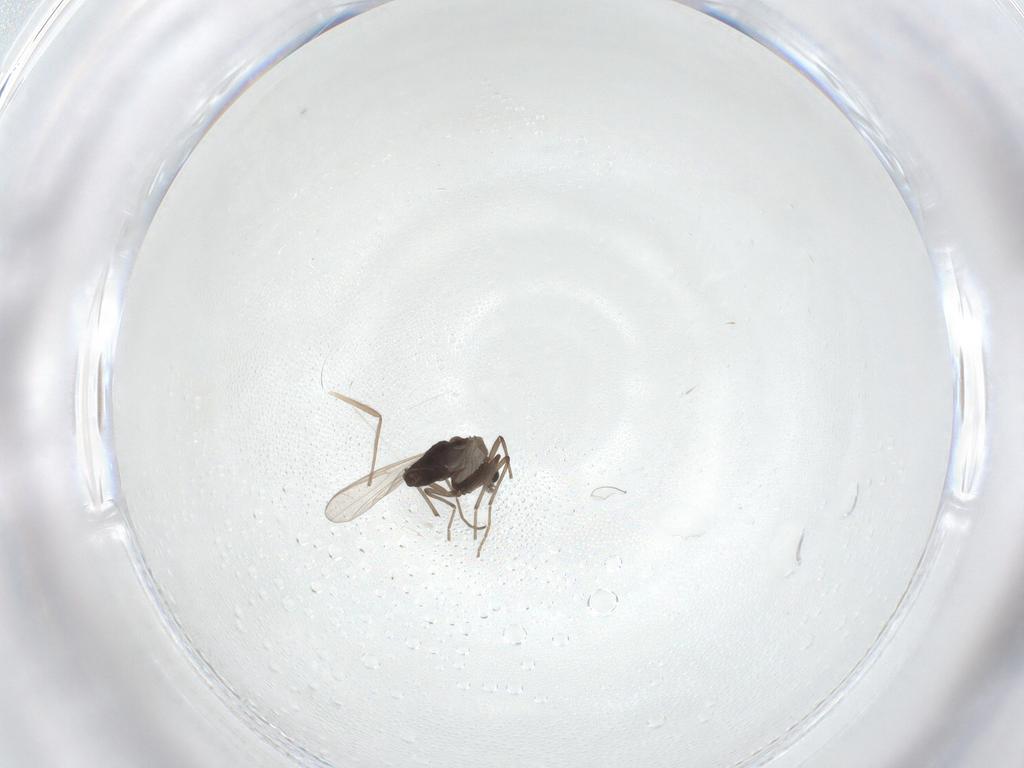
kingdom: Animalia
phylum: Arthropoda
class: Insecta
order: Diptera
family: Chironomidae
